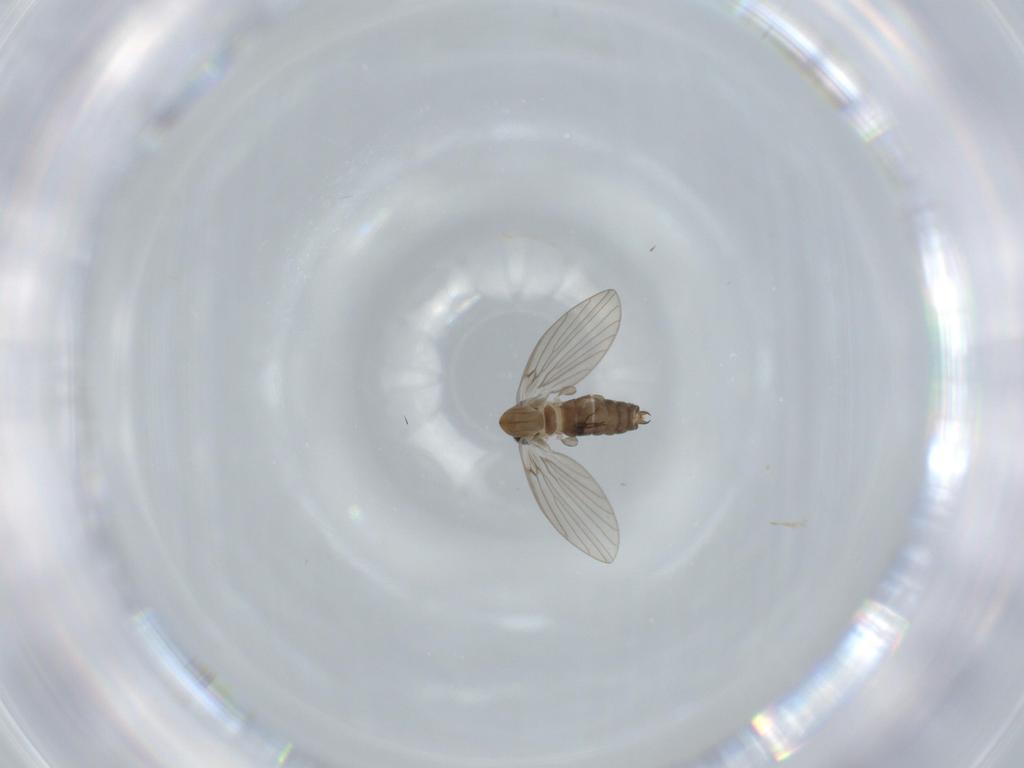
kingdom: Animalia
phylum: Arthropoda
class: Insecta
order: Diptera
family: Psychodidae
